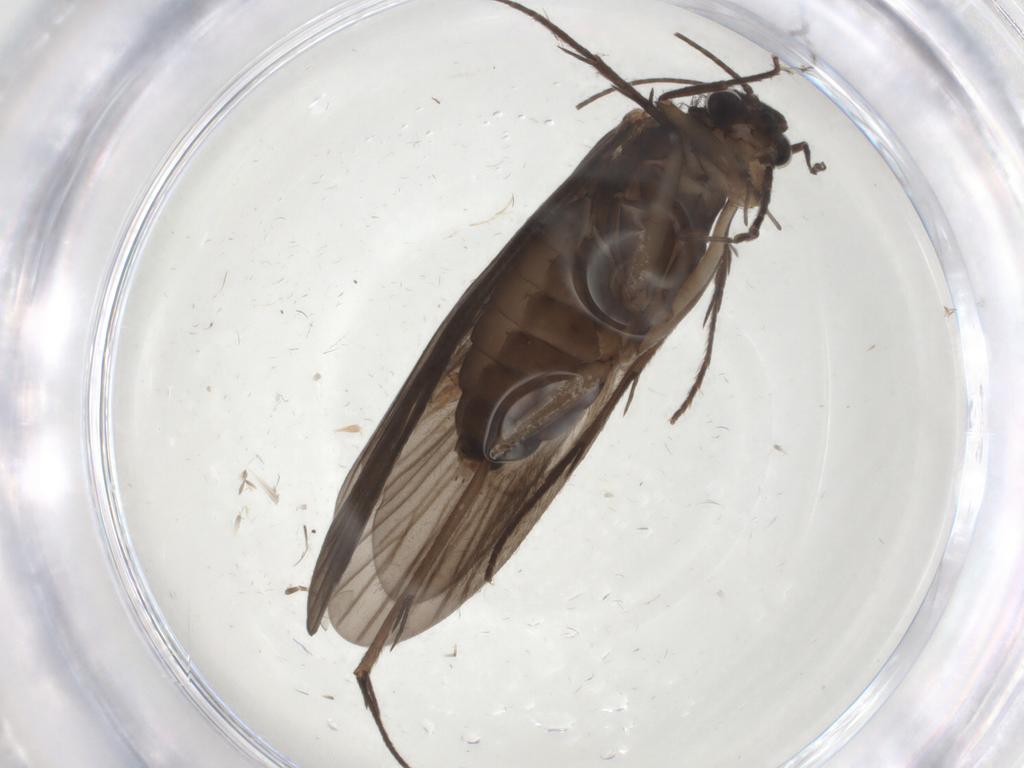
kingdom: Animalia
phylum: Arthropoda
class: Insecta
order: Trichoptera
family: Philopotamidae
